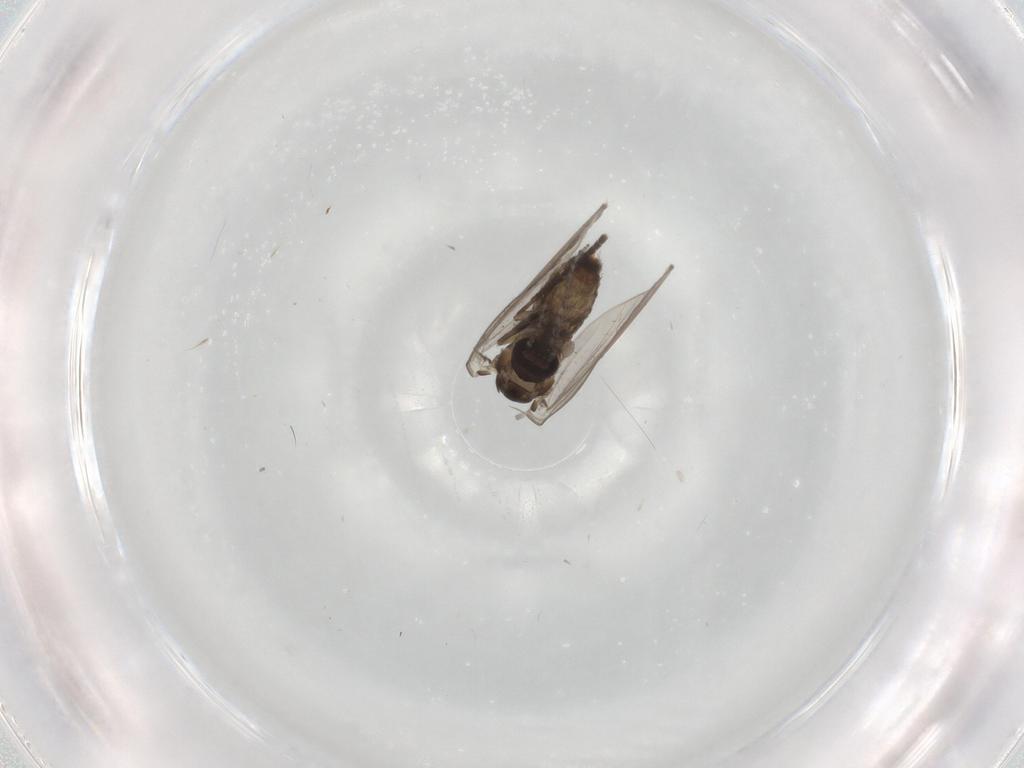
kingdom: Animalia
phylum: Arthropoda
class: Insecta
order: Diptera
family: Psychodidae
